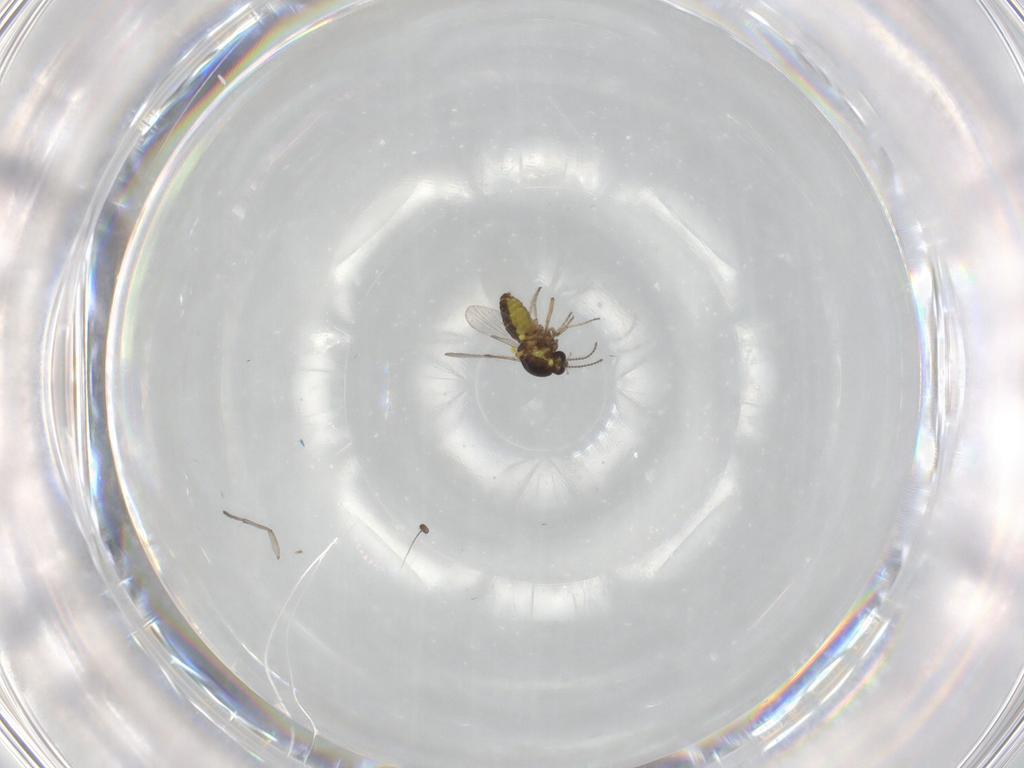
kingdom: Animalia
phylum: Arthropoda
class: Insecta
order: Diptera
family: Ceratopogonidae
